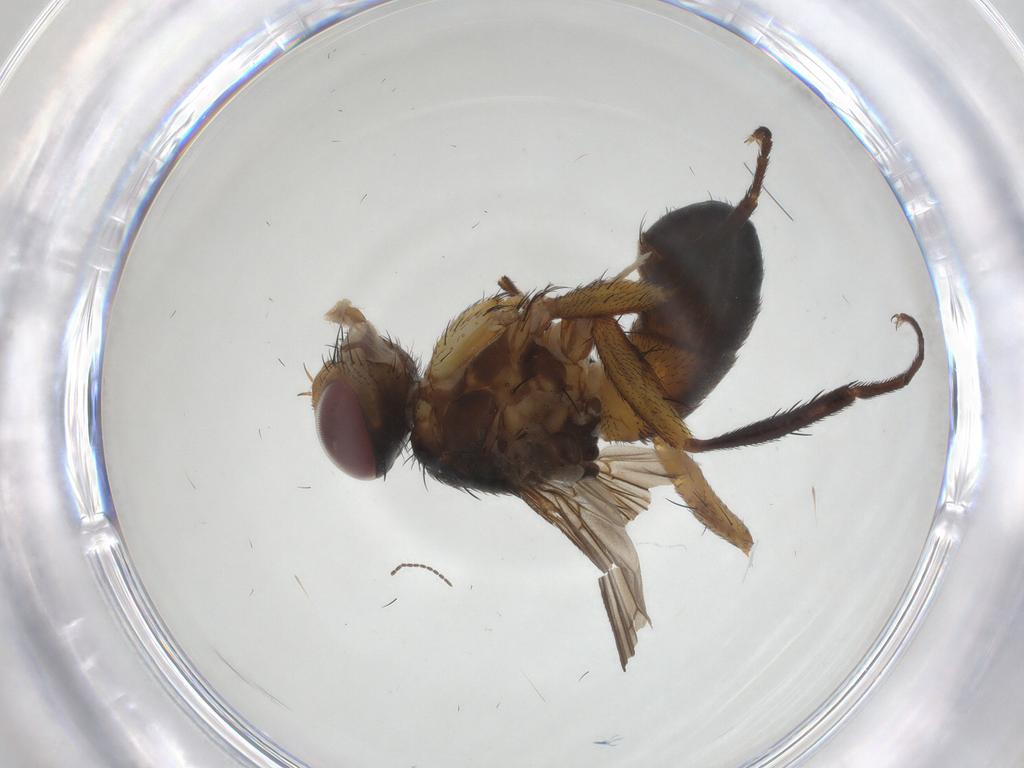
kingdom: Animalia
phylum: Arthropoda
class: Insecta
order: Diptera
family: Tachinidae
